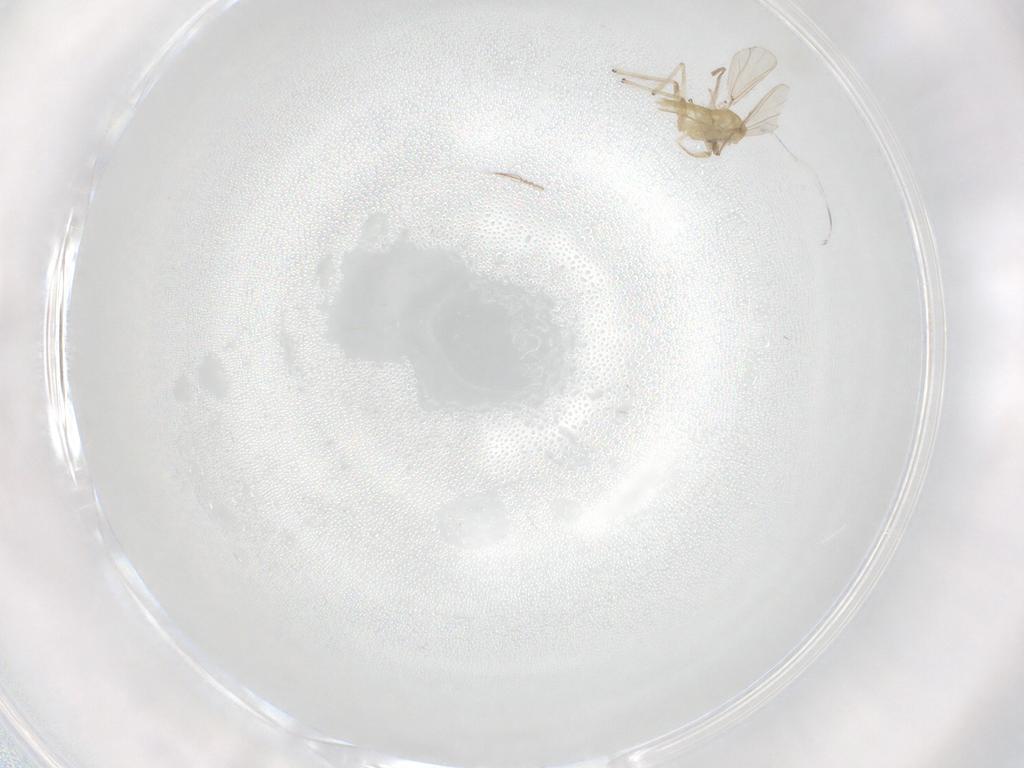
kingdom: Animalia
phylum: Arthropoda
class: Insecta
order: Diptera
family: Chironomidae
